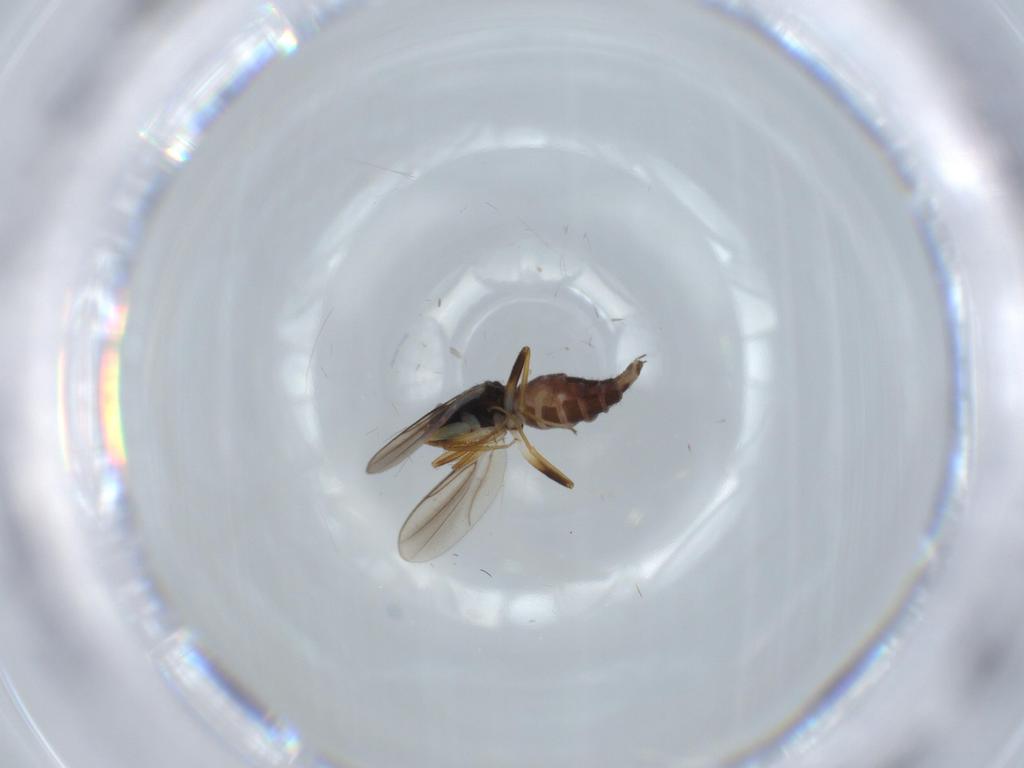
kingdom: Animalia
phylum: Arthropoda
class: Insecta
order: Diptera
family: Hybotidae
